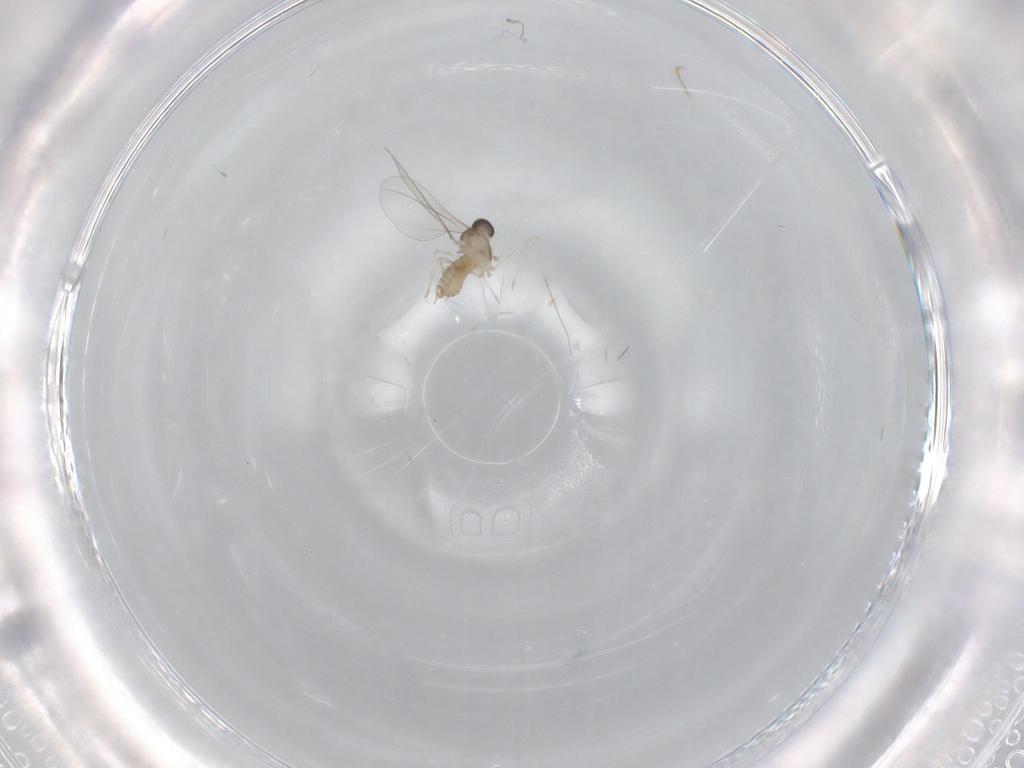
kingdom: Animalia
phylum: Arthropoda
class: Insecta
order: Diptera
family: Cecidomyiidae
